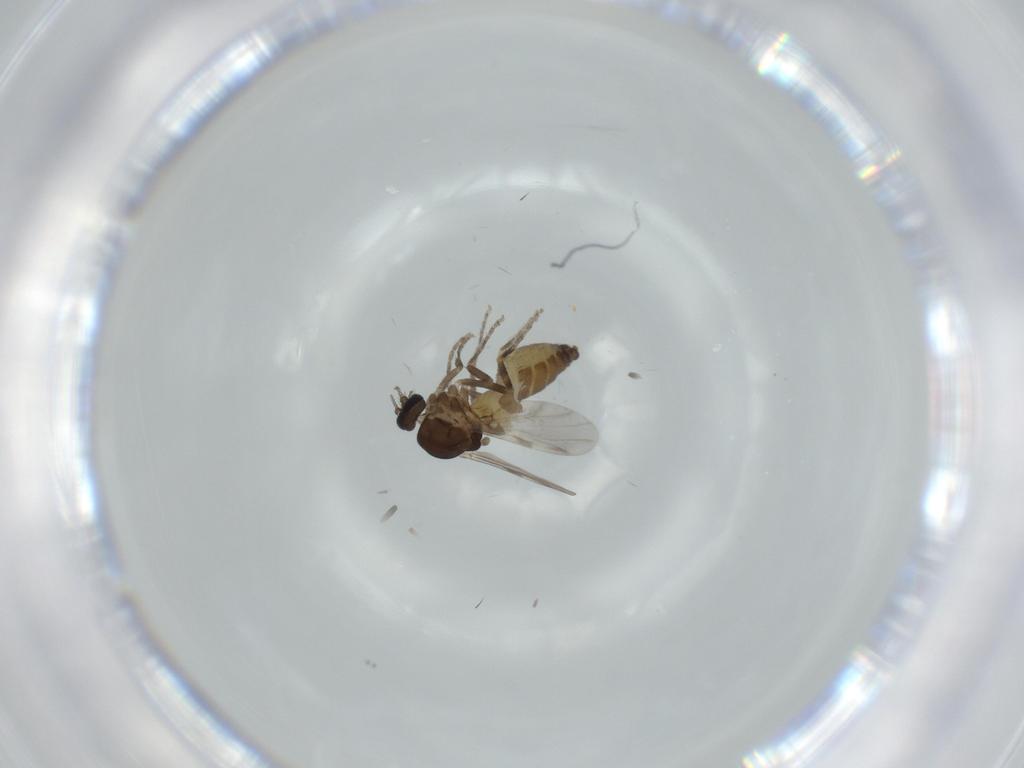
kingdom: Animalia
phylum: Arthropoda
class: Insecta
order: Diptera
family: Ceratopogonidae
